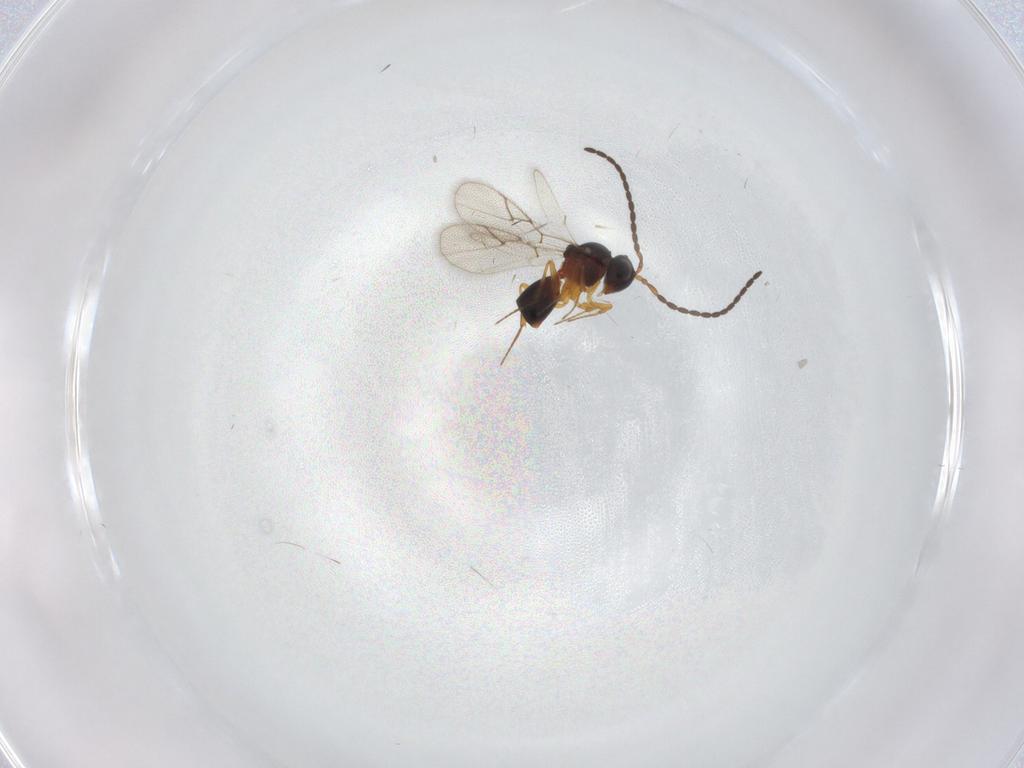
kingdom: Animalia
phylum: Arthropoda
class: Insecta
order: Hymenoptera
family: Figitidae
